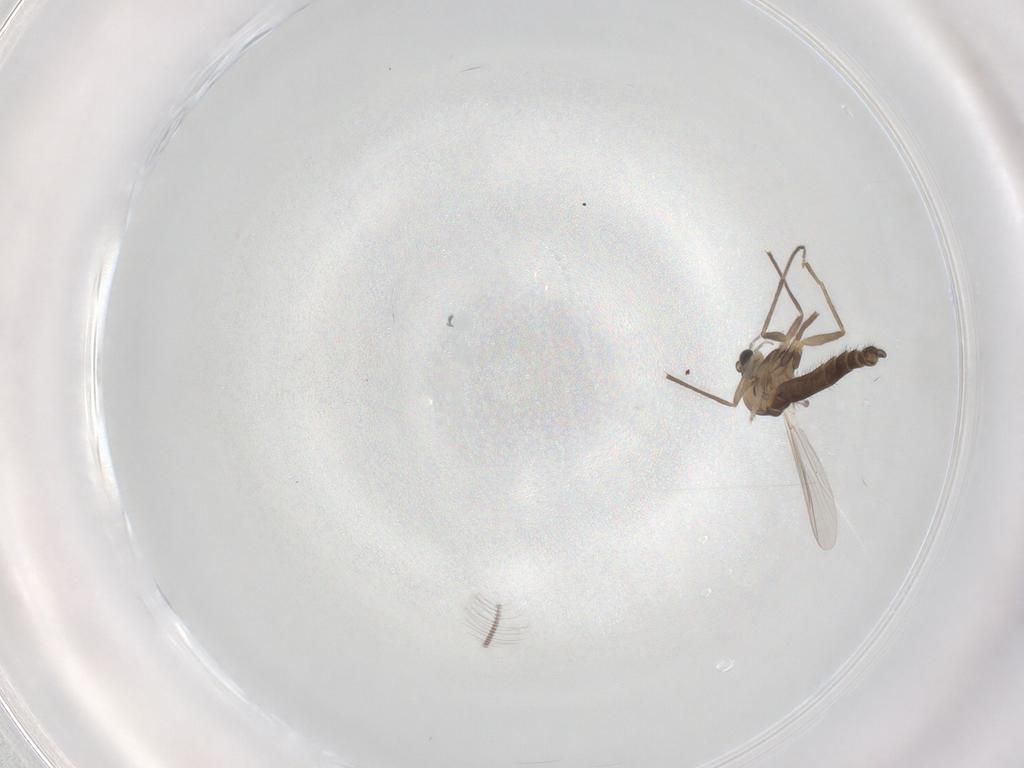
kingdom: Animalia
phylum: Arthropoda
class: Insecta
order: Diptera
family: Chironomidae
